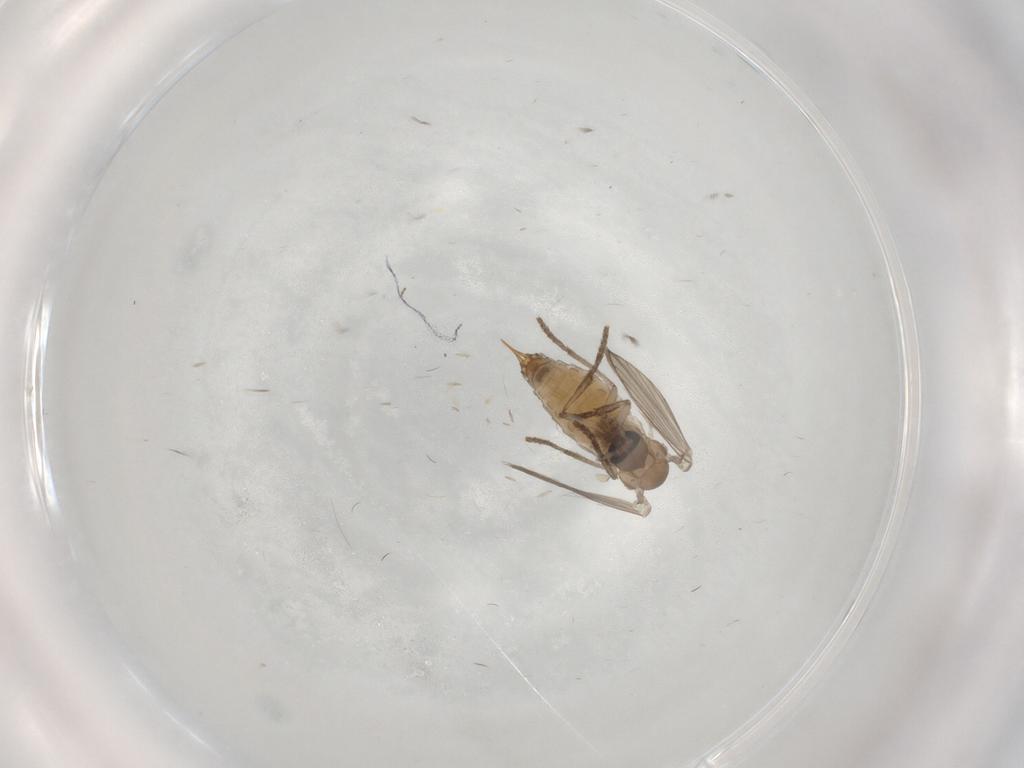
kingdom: Animalia
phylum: Arthropoda
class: Insecta
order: Diptera
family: Psychodidae
